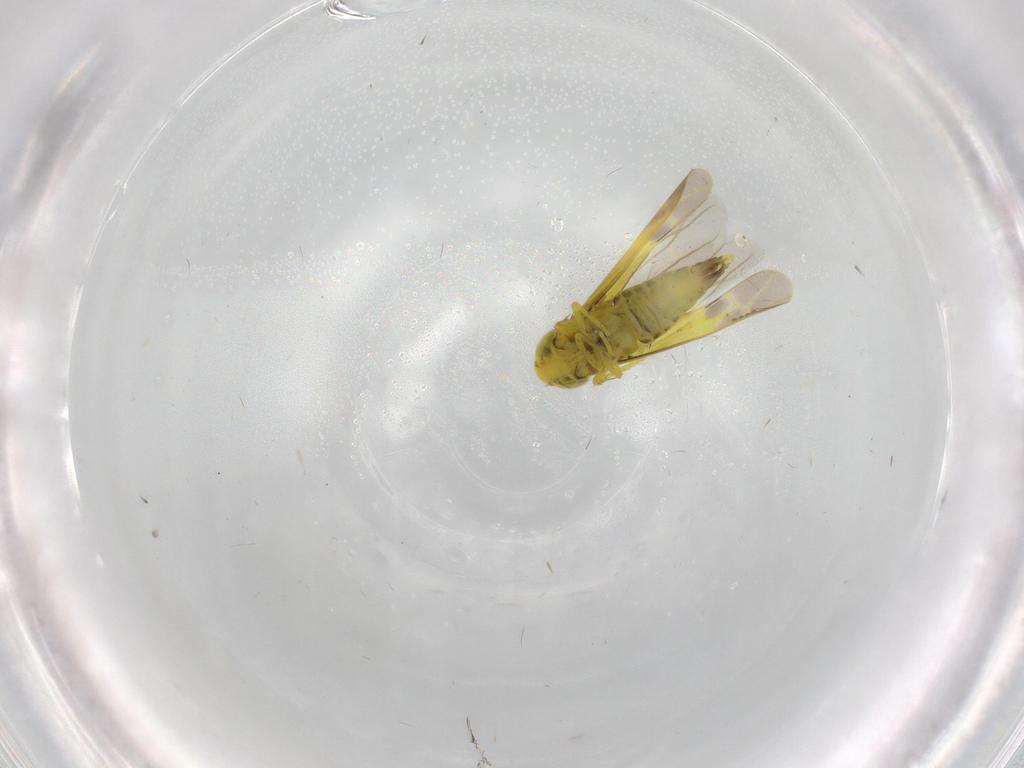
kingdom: Animalia
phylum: Arthropoda
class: Insecta
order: Hemiptera
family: Cicadellidae
